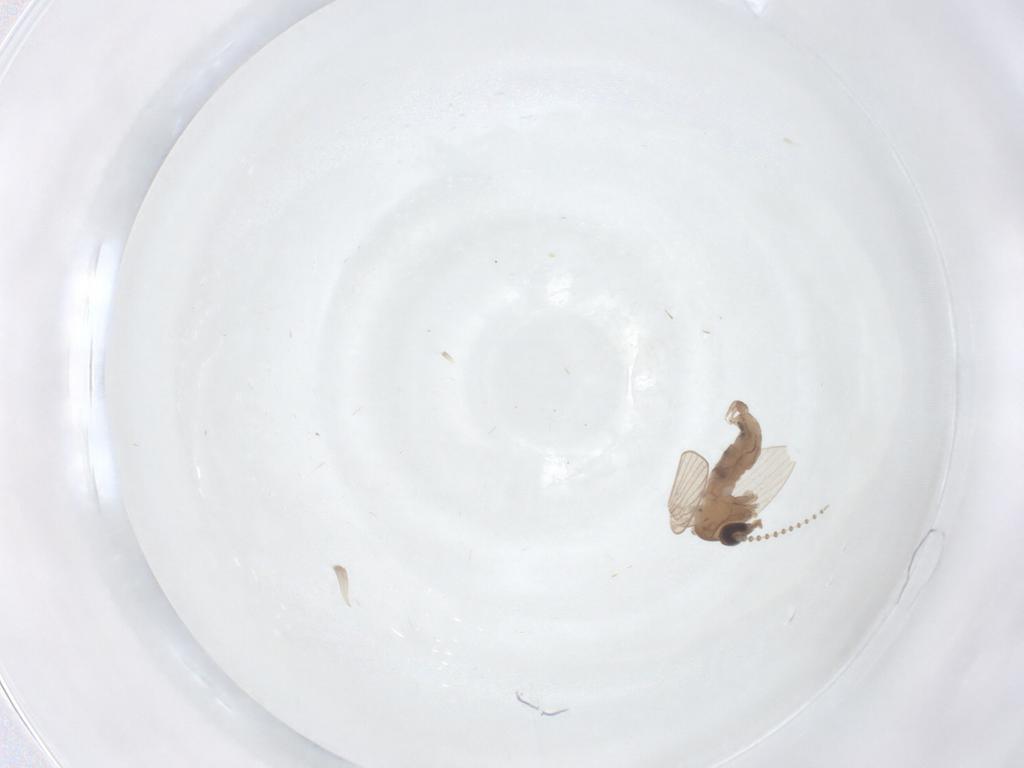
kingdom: Animalia
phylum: Arthropoda
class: Insecta
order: Diptera
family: Psychodidae
